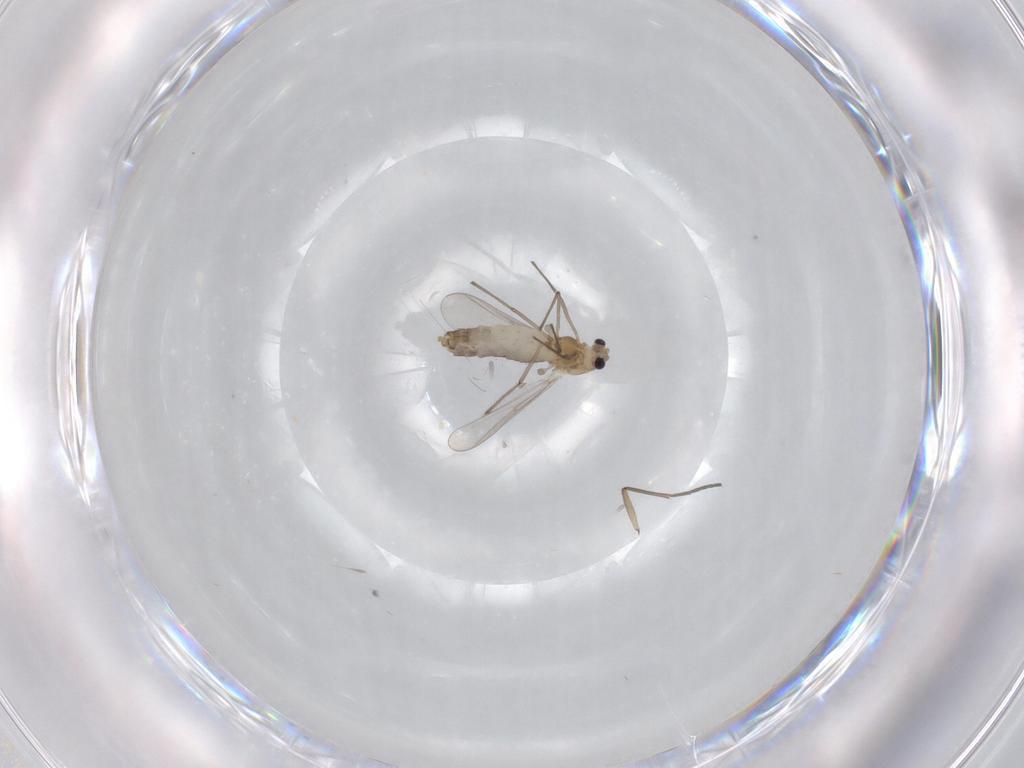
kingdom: Animalia
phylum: Arthropoda
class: Insecta
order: Diptera
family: Chironomidae
